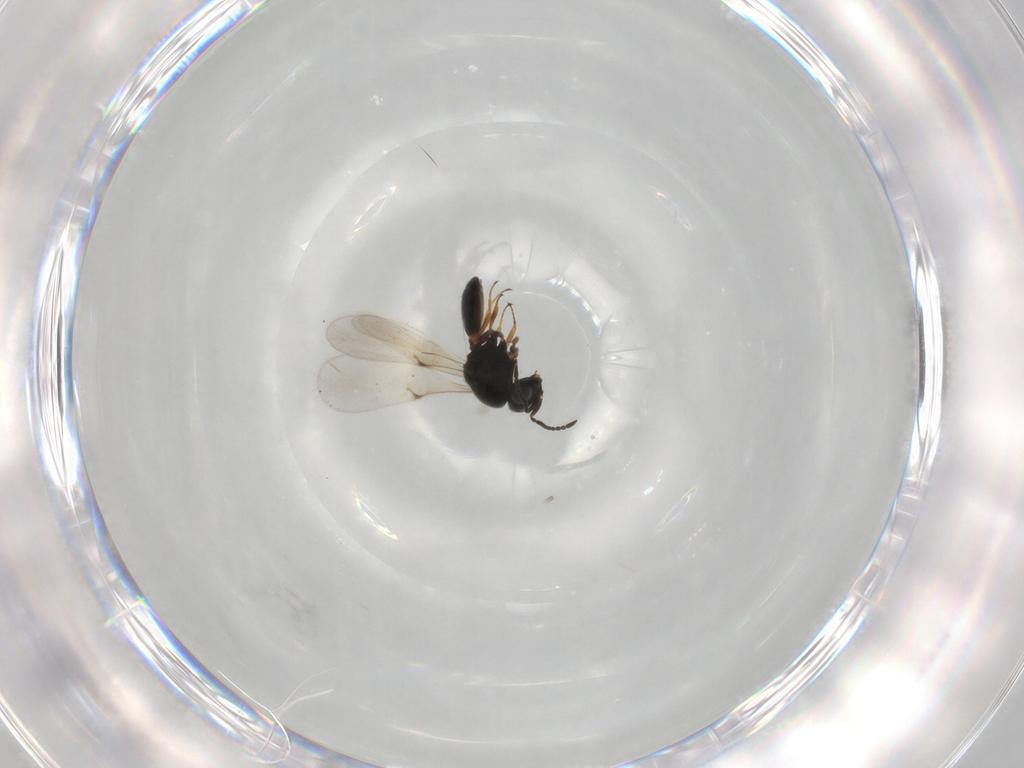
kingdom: Animalia
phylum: Arthropoda
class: Insecta
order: Hymenoptera
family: Scelionidae
